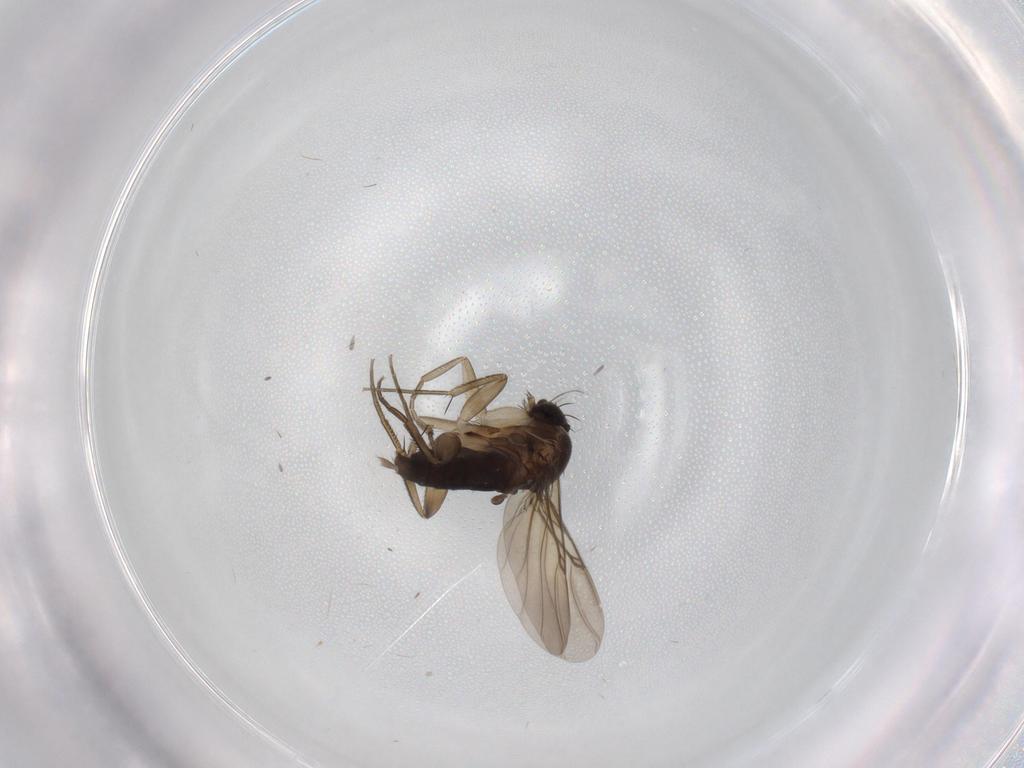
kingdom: Animalia
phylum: Arthropoda
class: Insecta
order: Diptera
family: Phoridae
